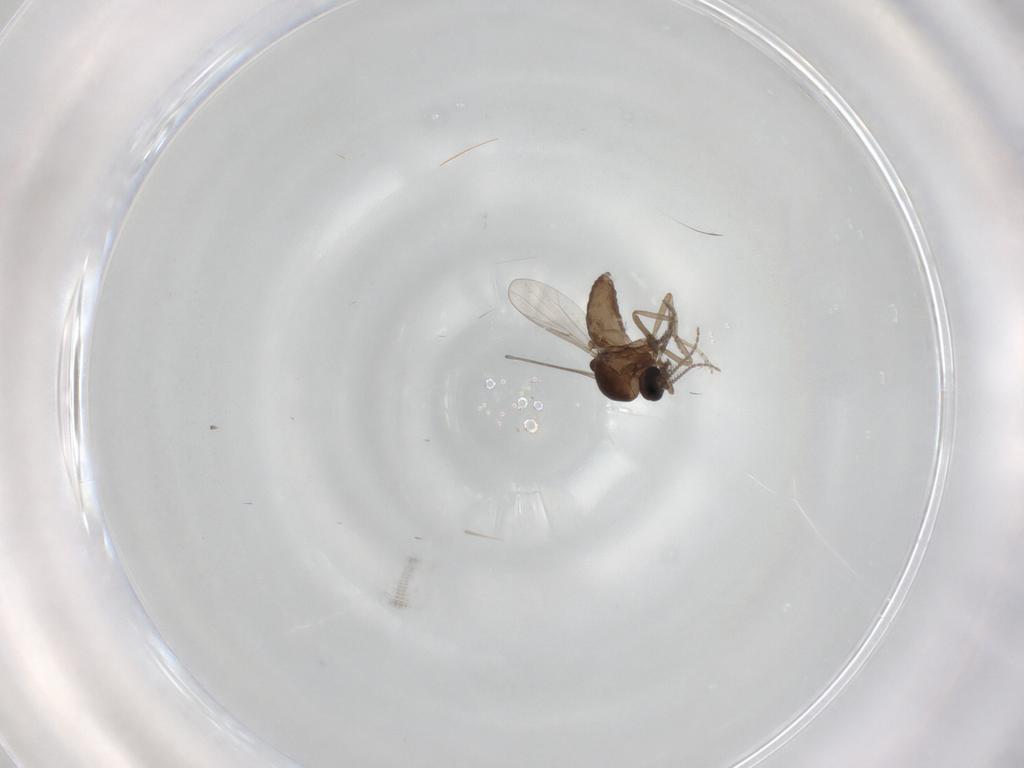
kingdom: Animalia
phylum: Arthropoda
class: Insecta
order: Diptera
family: Ceratopogonidae
